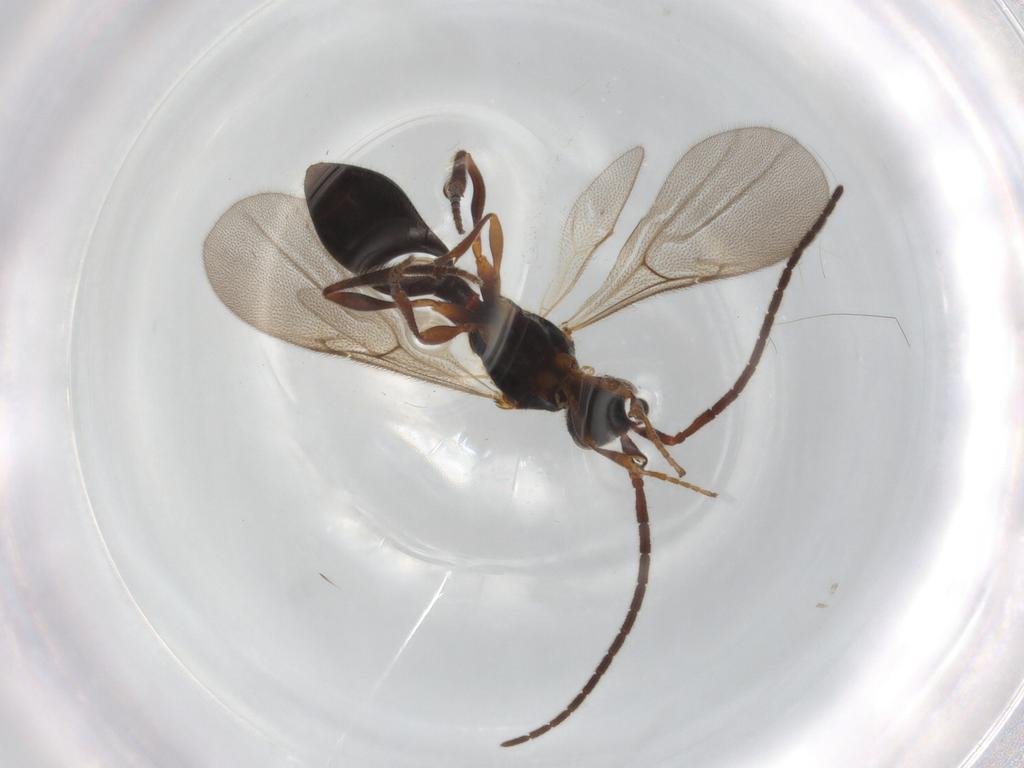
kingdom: Animalia
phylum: Arthropoda
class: Insecta
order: Hymenoptera
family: Diapriidae
